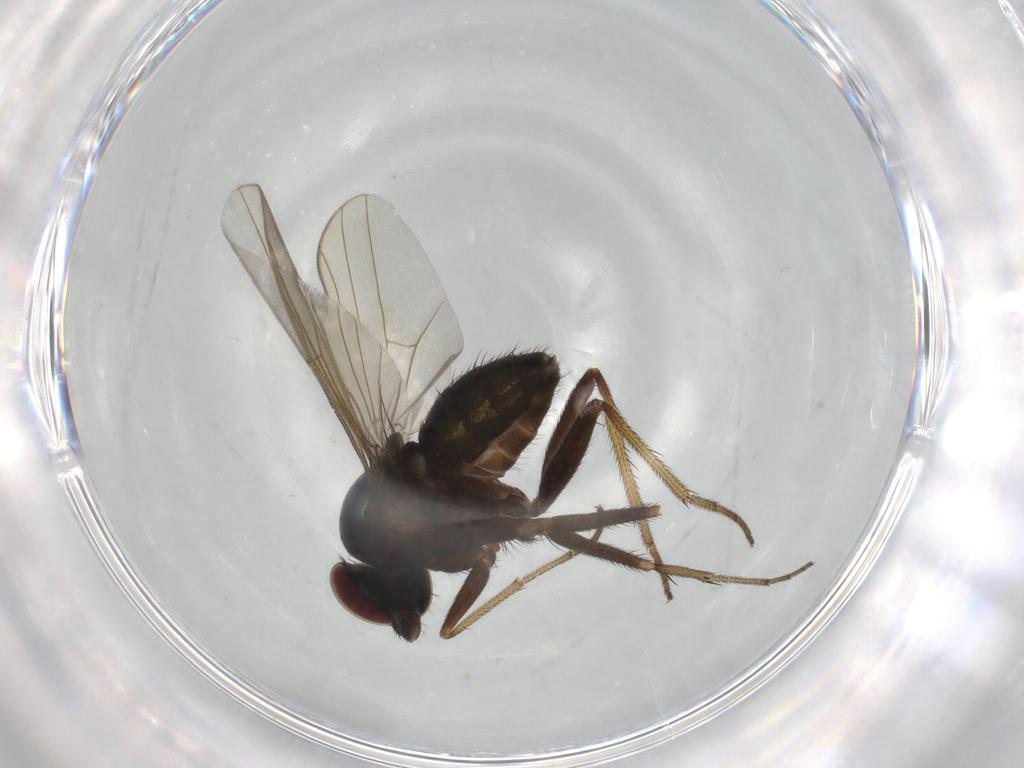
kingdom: Animalia
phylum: Arthropoda
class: Insecta
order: Diptera
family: Dolichopodidae
